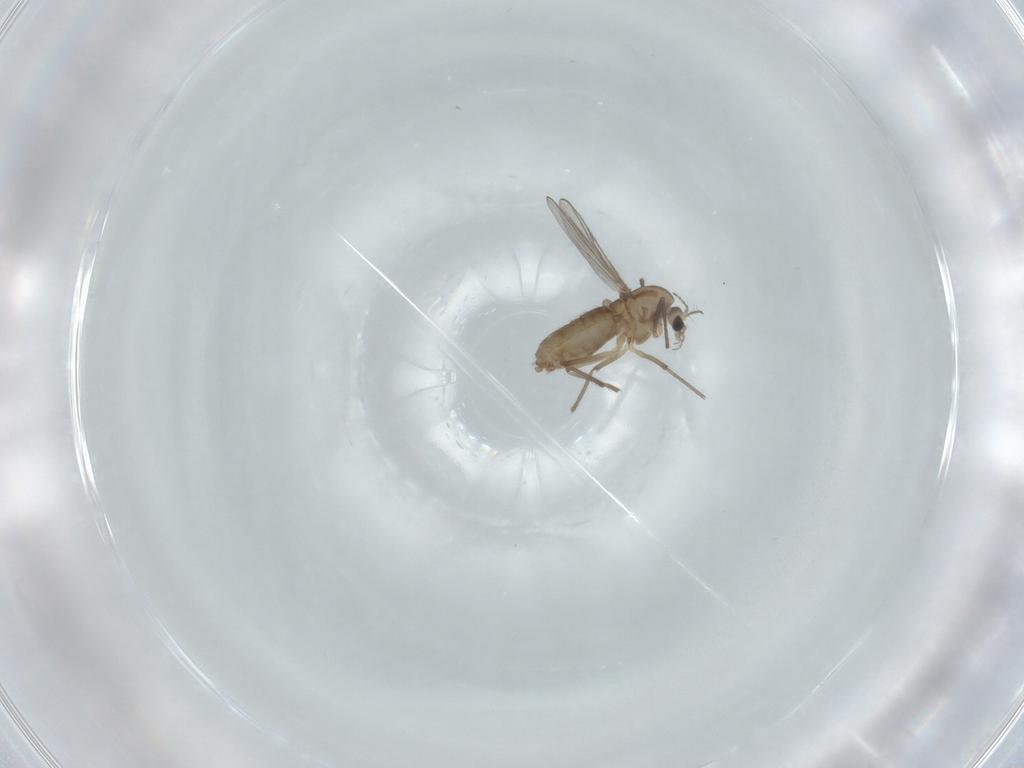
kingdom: Animalia
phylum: Arthropoda
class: Insecta
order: Diptera
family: Chironomidae
